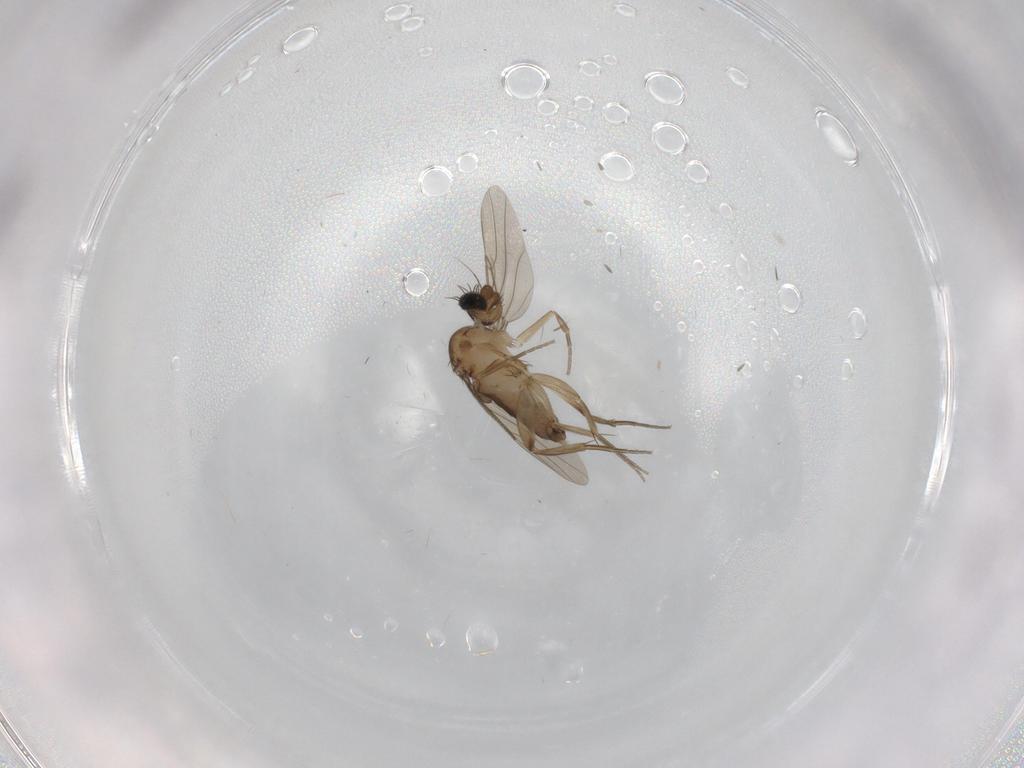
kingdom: Animalia
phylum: Arthropoda
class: Insecta
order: Diptera
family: Phoridae
